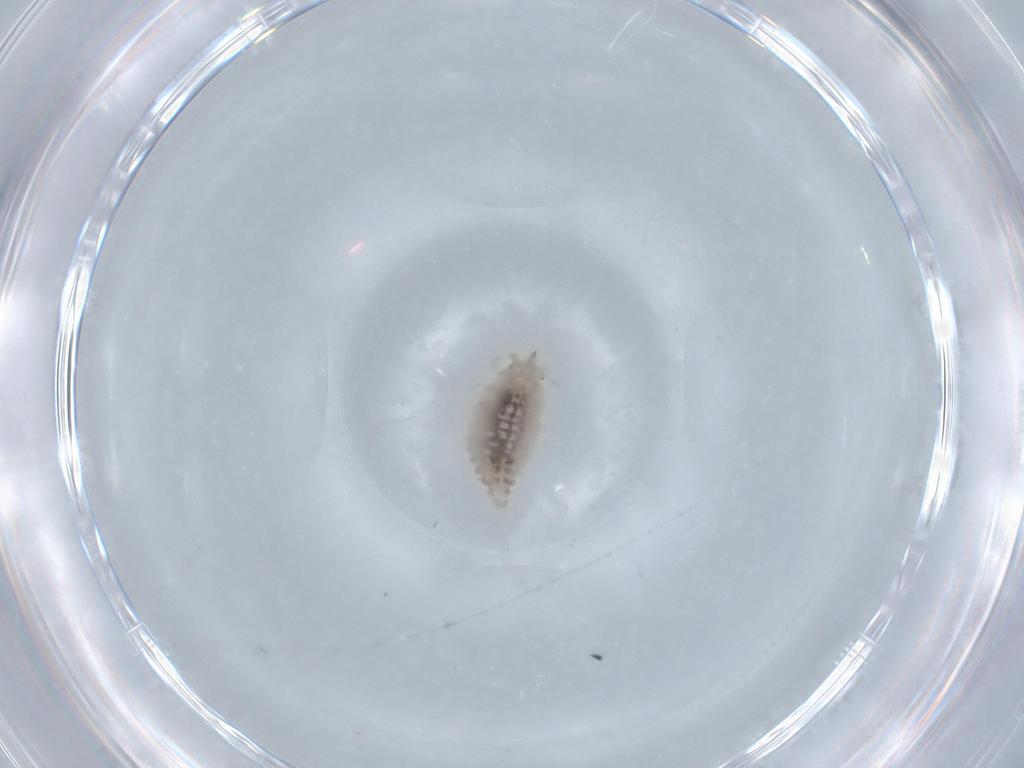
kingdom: Animalia
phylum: Arthropoda
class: Insecta
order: Neuroptera
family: Coniopterygidae
